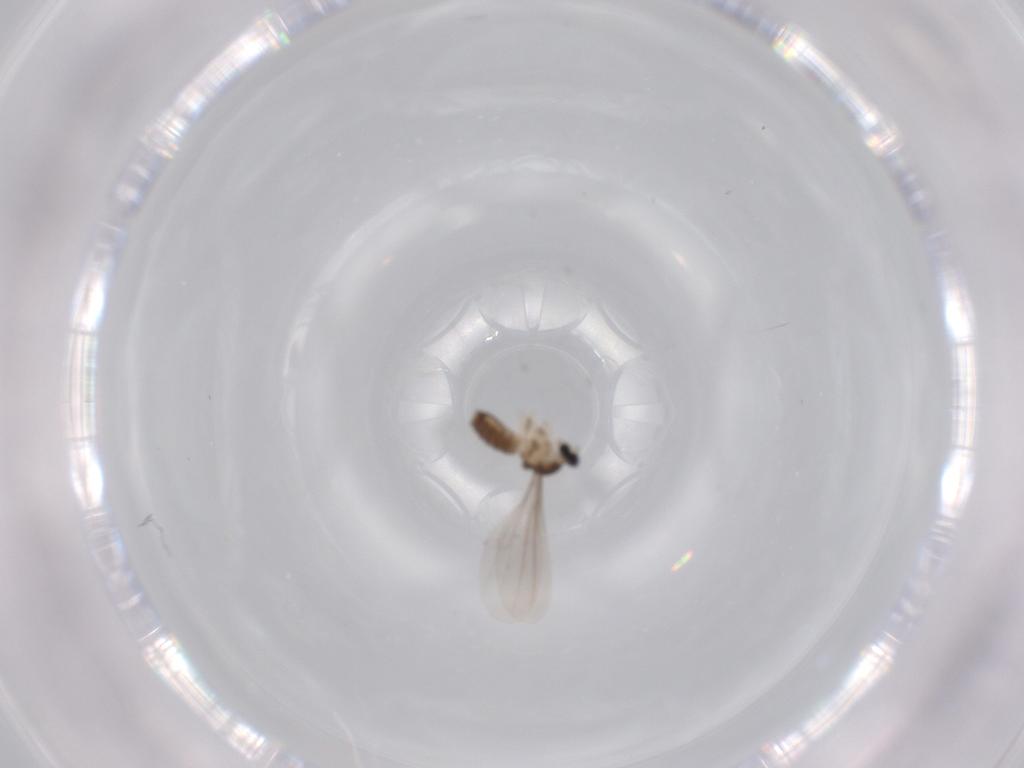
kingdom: Animalia
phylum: Arthropoda
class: Insecta
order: Diptera
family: Cecidomyiidae
